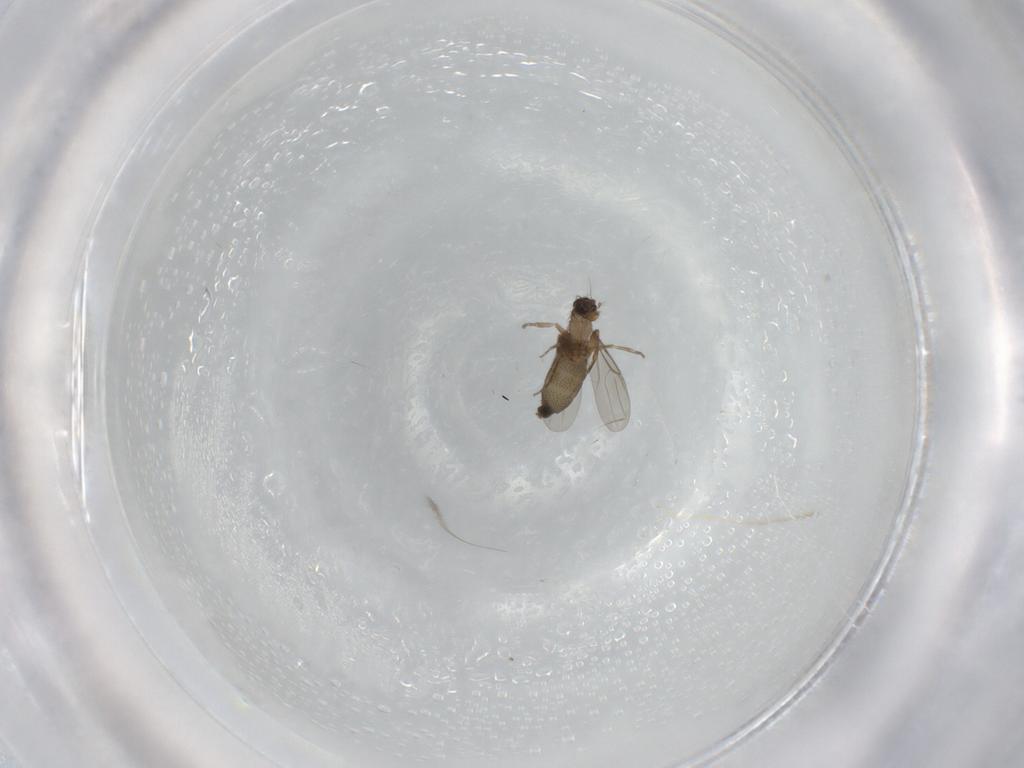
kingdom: Animalia
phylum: Arthropoda
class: Insecta
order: Diptera
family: Phoridae
